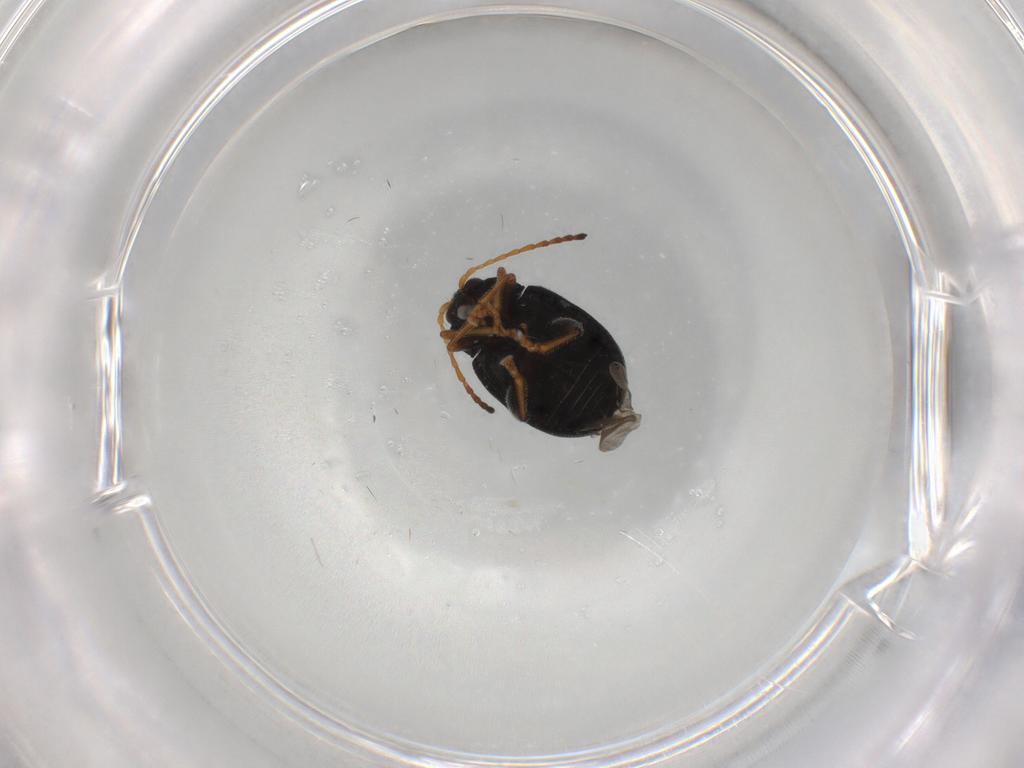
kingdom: Animalia
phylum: Arthropoda
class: Insecta
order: Coleoptera
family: Chrysomelidae
